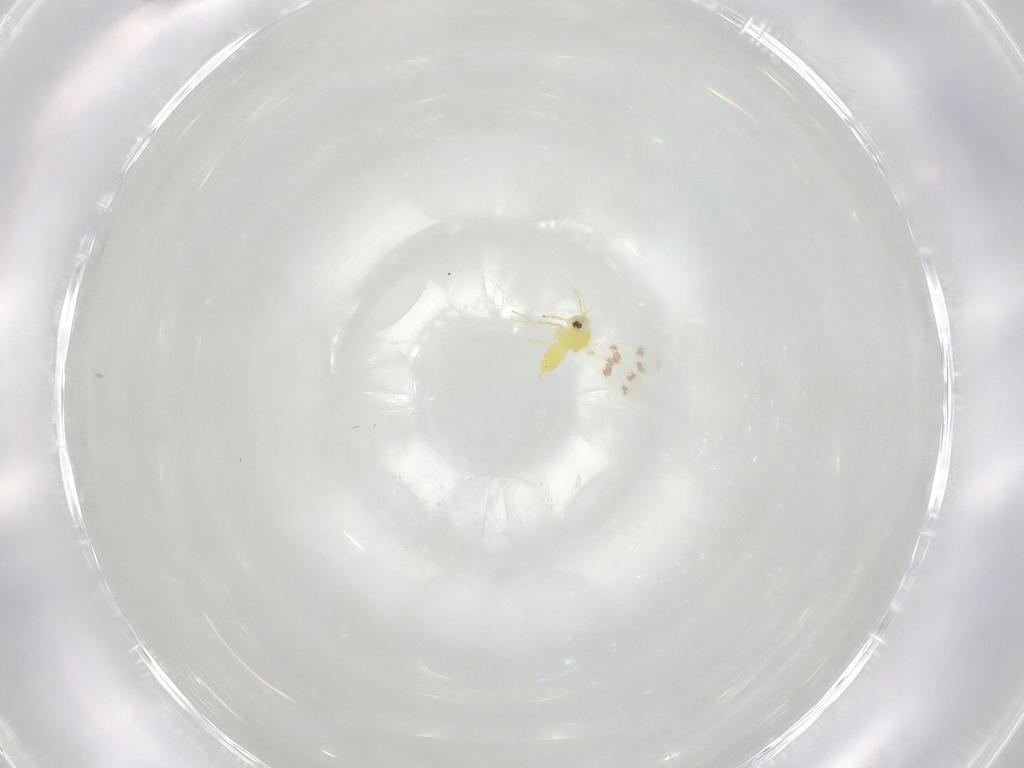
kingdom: Animalia
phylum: Arthropoda
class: Insecta
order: Hemiptera
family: Aleyrodidae
